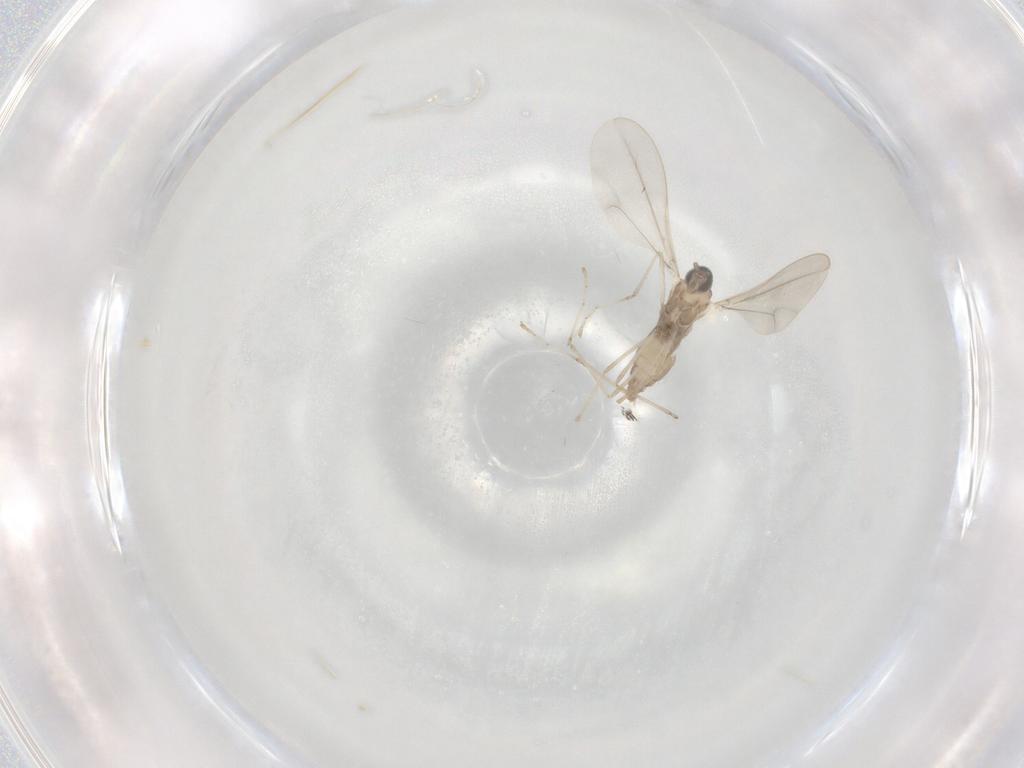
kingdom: Animalia
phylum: Arthropoda
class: Insecta
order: Diptera
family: Cecidomyiidae
